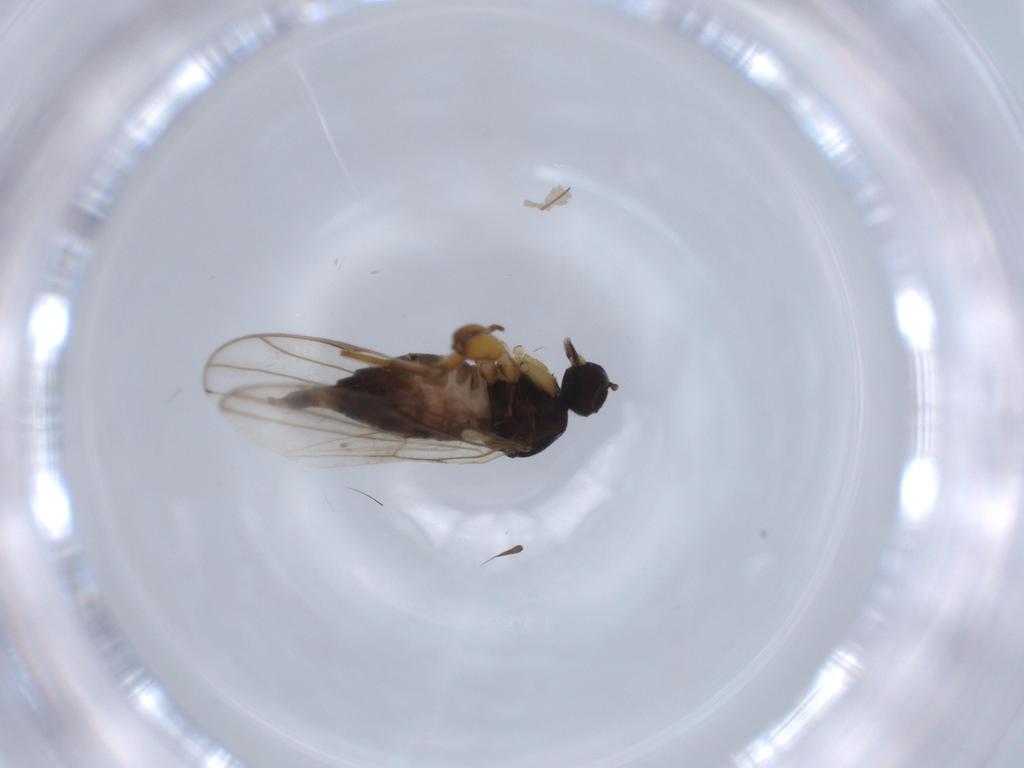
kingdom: Animalia
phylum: Arthropoda
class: Insecta
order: Diptera
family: Hybotidae
